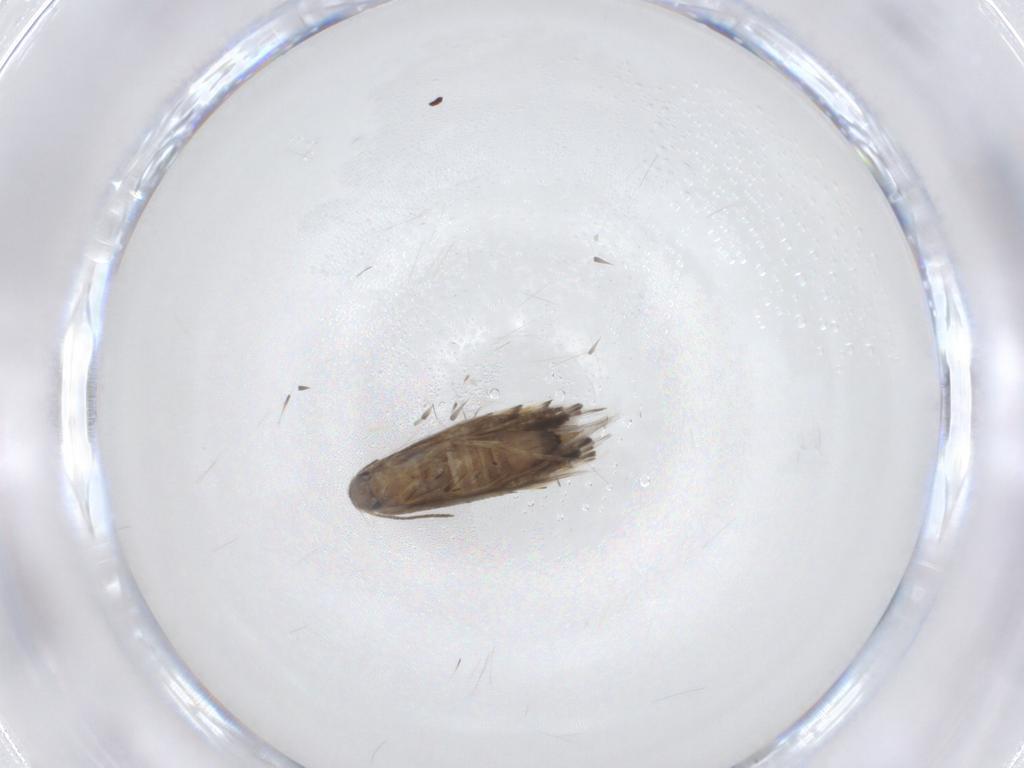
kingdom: Animalia
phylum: Arthropoda
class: Insecta
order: Lepidoptera
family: Heliozelidae
